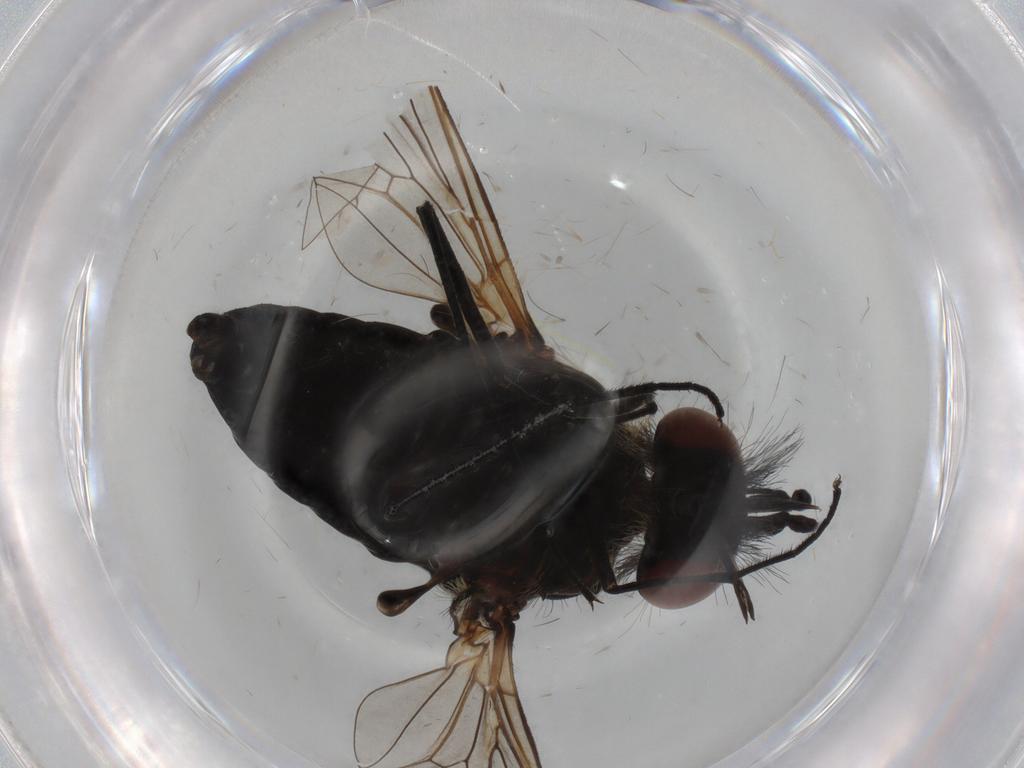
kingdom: Animalia
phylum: Arthropoda
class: Insecta
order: Diptera
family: Bombyliidae
